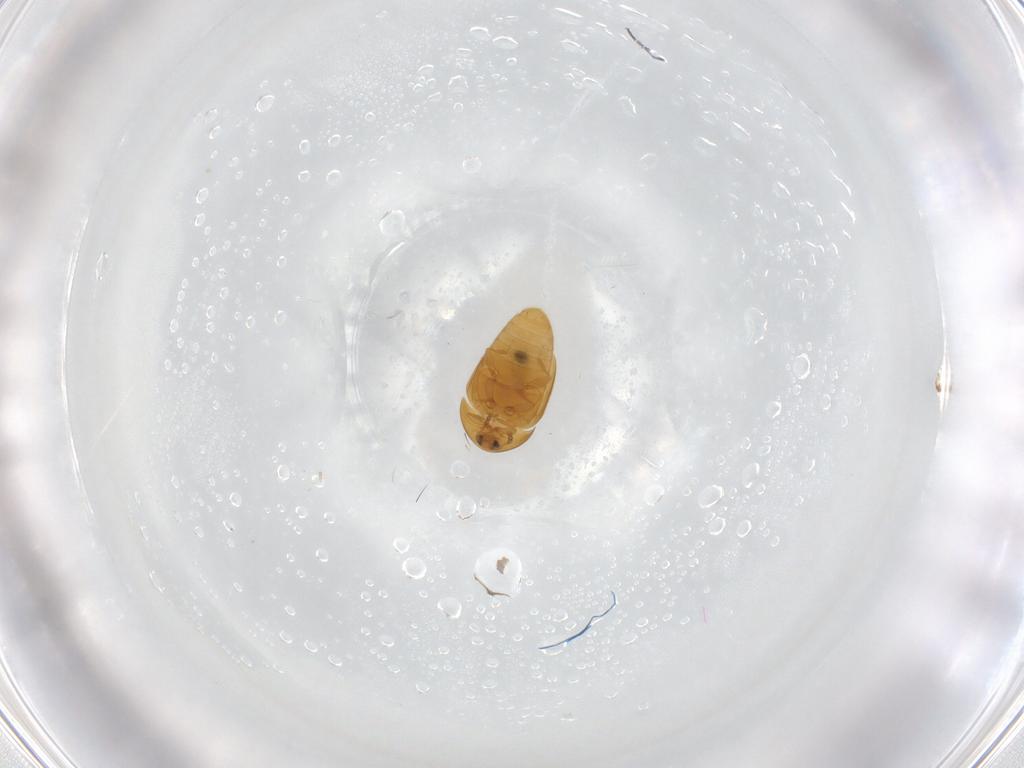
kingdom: Animalia
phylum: Arthropoda
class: Insecta
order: Coleoptera
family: Corylophidae
